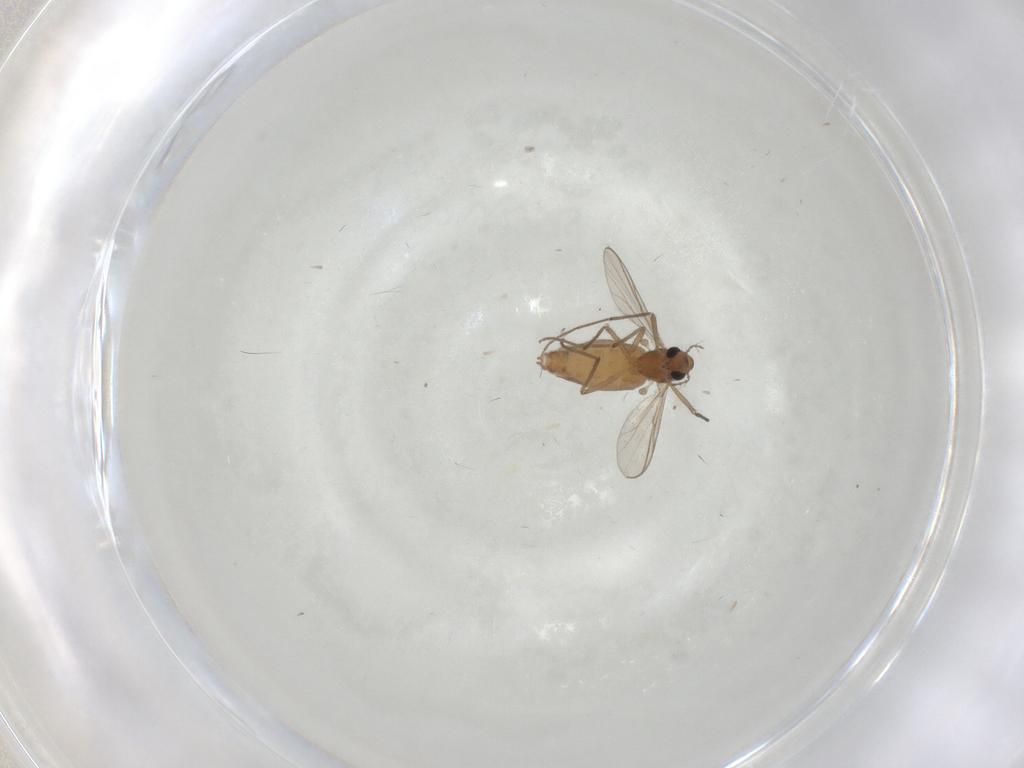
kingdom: Animalia
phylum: Arthropoda
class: Insecta
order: Diptera
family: Chironomidae
